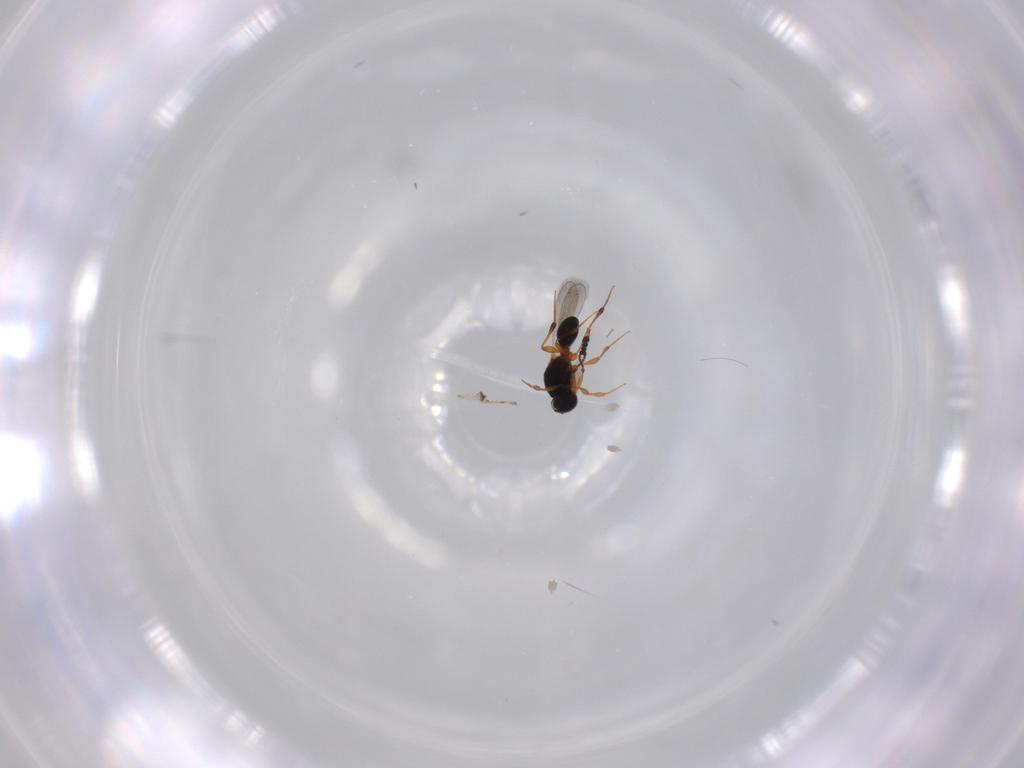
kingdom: Animalia
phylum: Arthropoda
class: Insecta
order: Hymenoptera
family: Platygastridae
